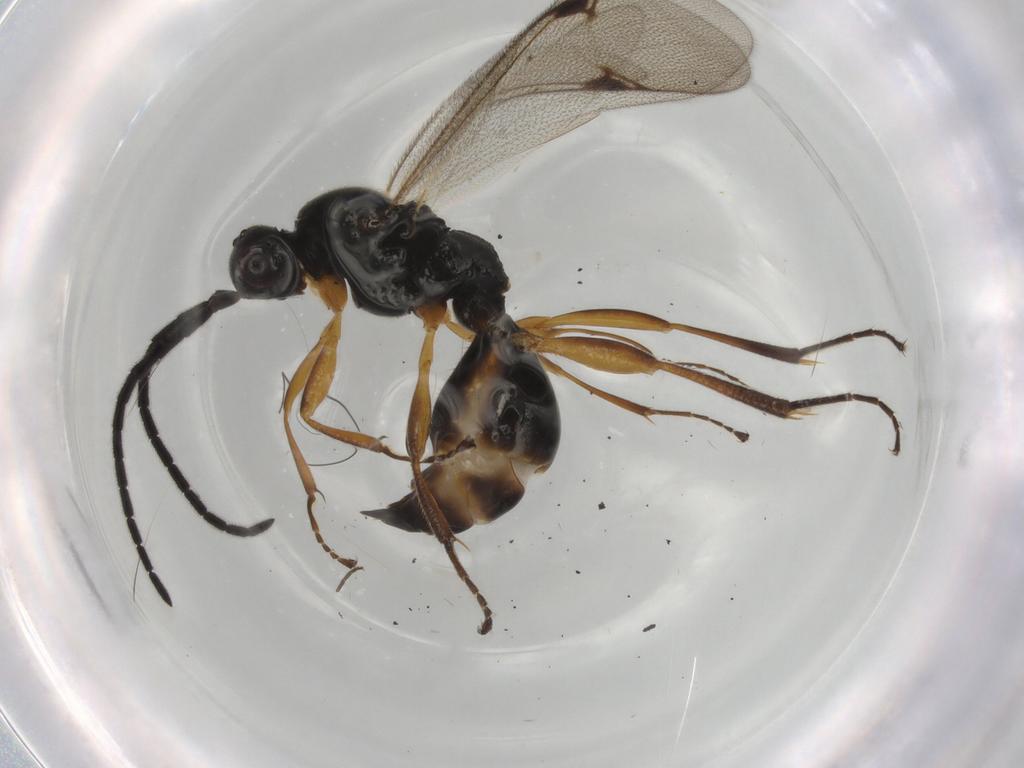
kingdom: Animalia
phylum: Arthropoda
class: Insecta
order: Hymenoptera
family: Proctotrupidae
